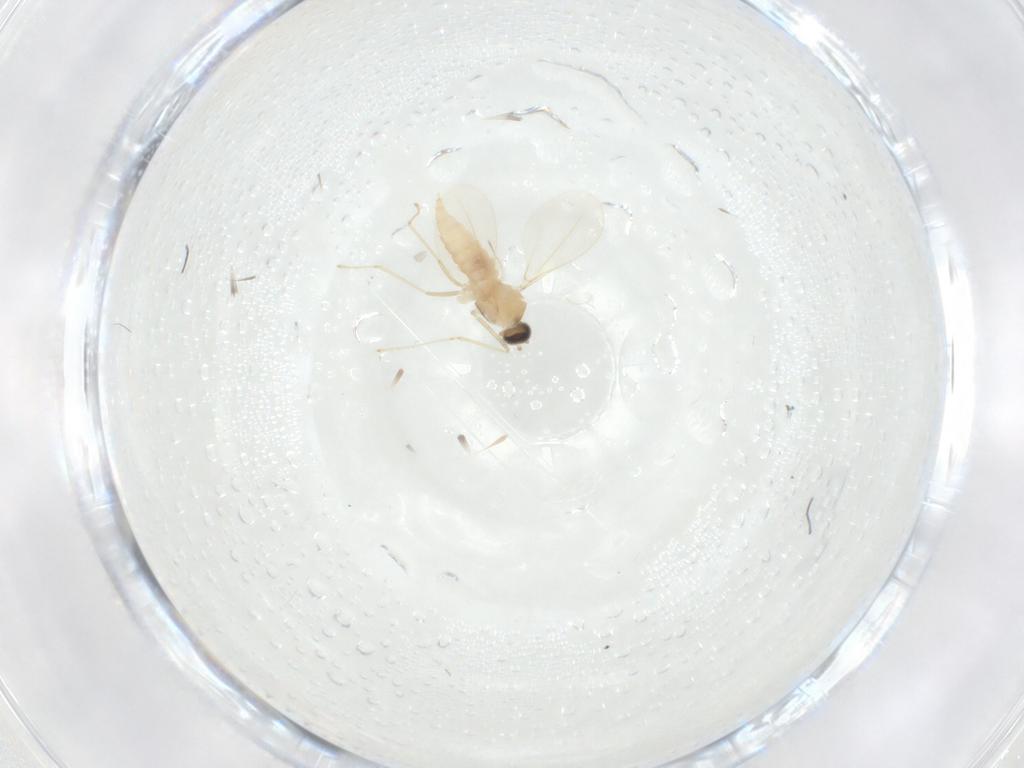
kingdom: Animalia
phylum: Arthropoda
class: Insecta
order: Diptera
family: Cecidomyiidae
